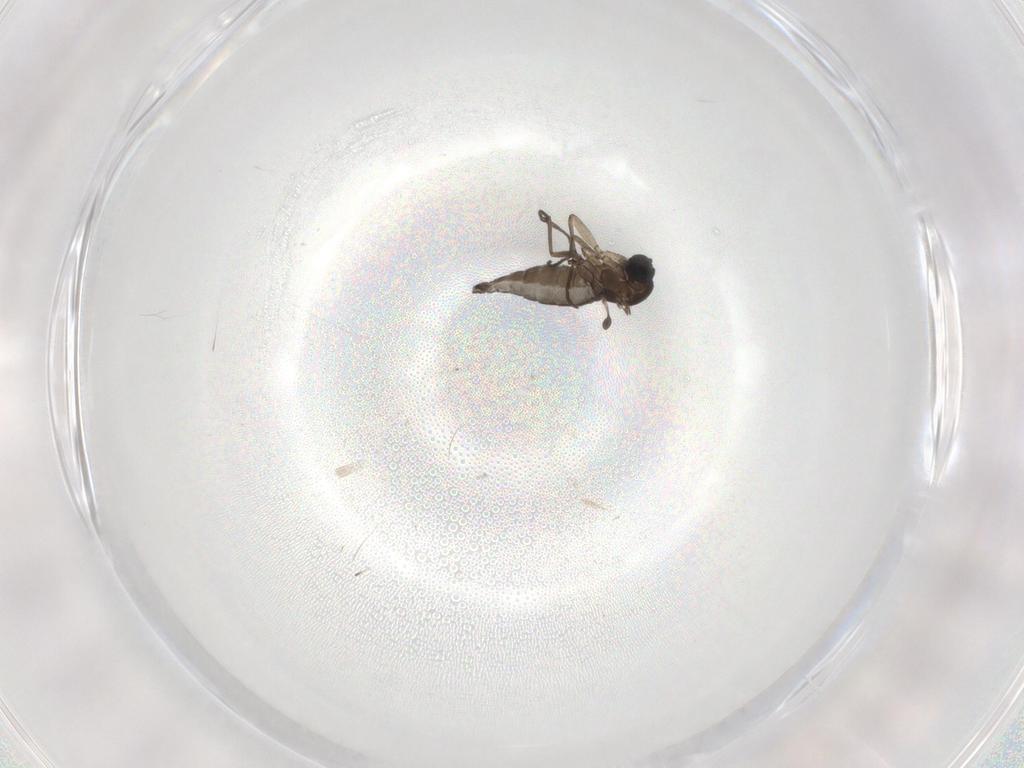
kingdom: Animalia
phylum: Arthropoda
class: Insecta
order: Diptera
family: Sciaridae
